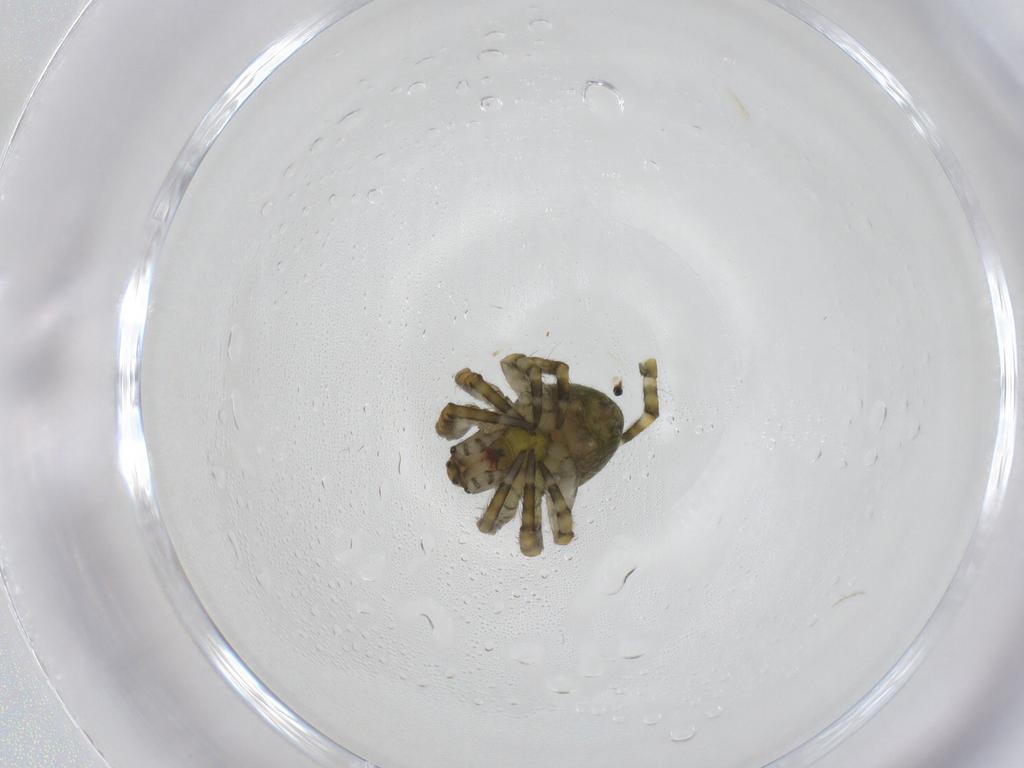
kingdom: Animalia
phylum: Arthropoda
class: Arachnida
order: Araneae
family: Araneidae
